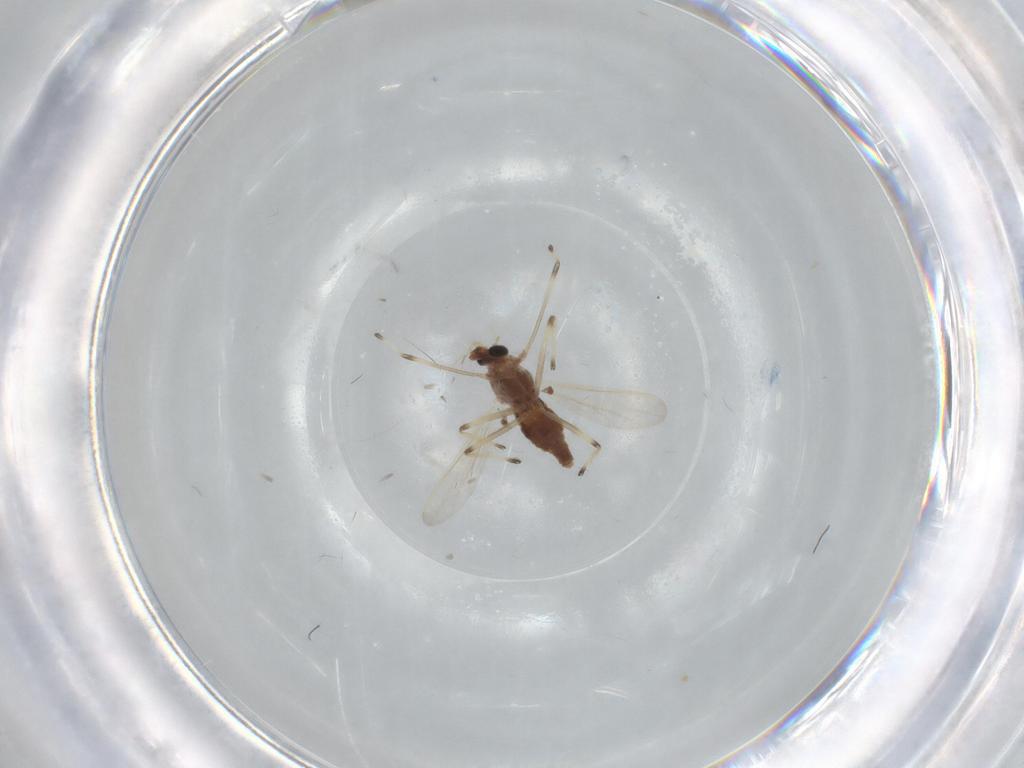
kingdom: Animalia
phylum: Arthropoda
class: Insecta
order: Diptera
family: Chironomidae
